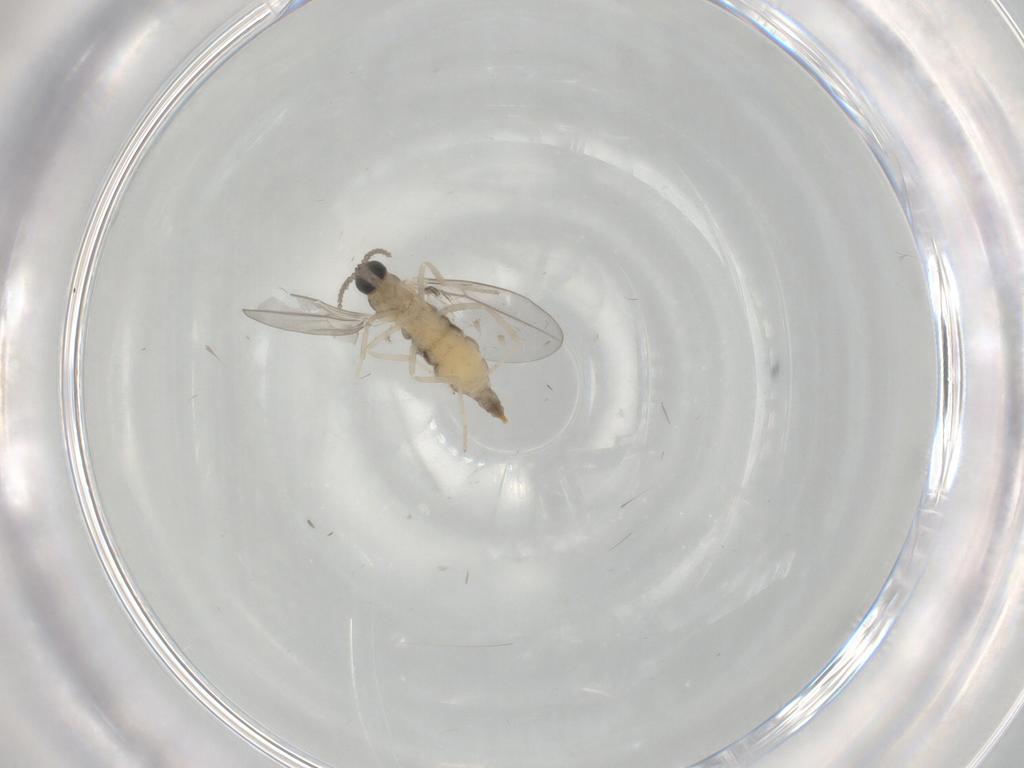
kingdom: Animalia
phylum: Arthropoda
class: Insecta
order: Diptera
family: Cecidomyiidae
